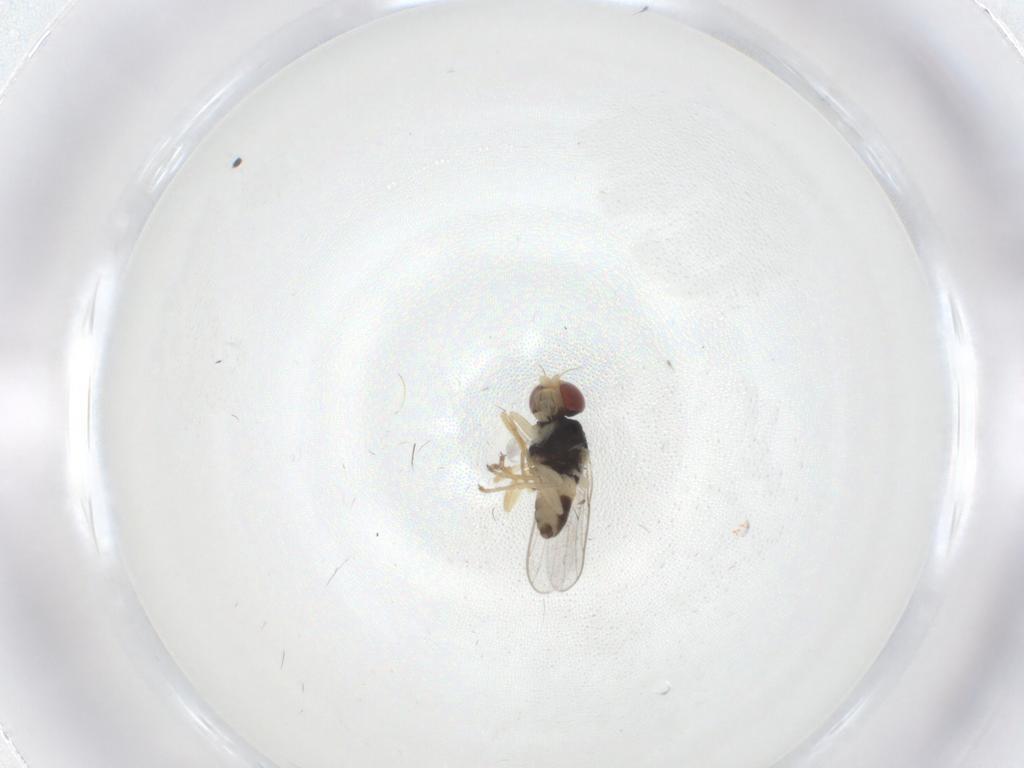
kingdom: Animalia
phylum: Arthropoda
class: Insecta
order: Diptera
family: Chloropidae
